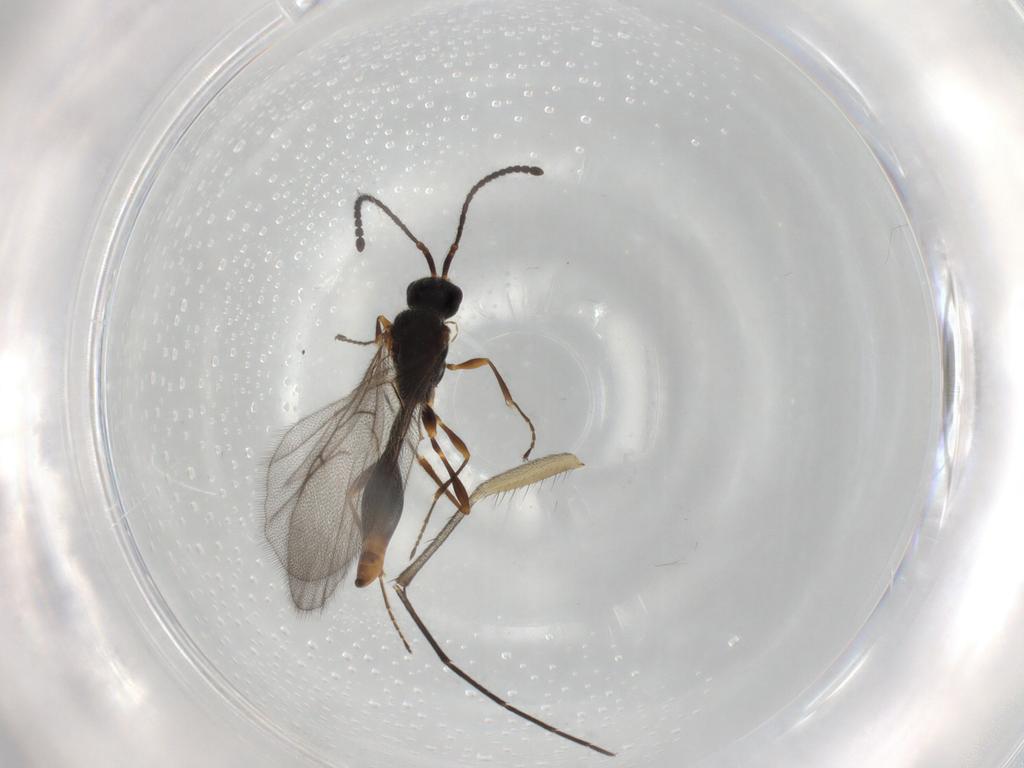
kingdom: Animalia
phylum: Arthropoda
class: Insecta
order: Hymenoptera
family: Diapriidae
